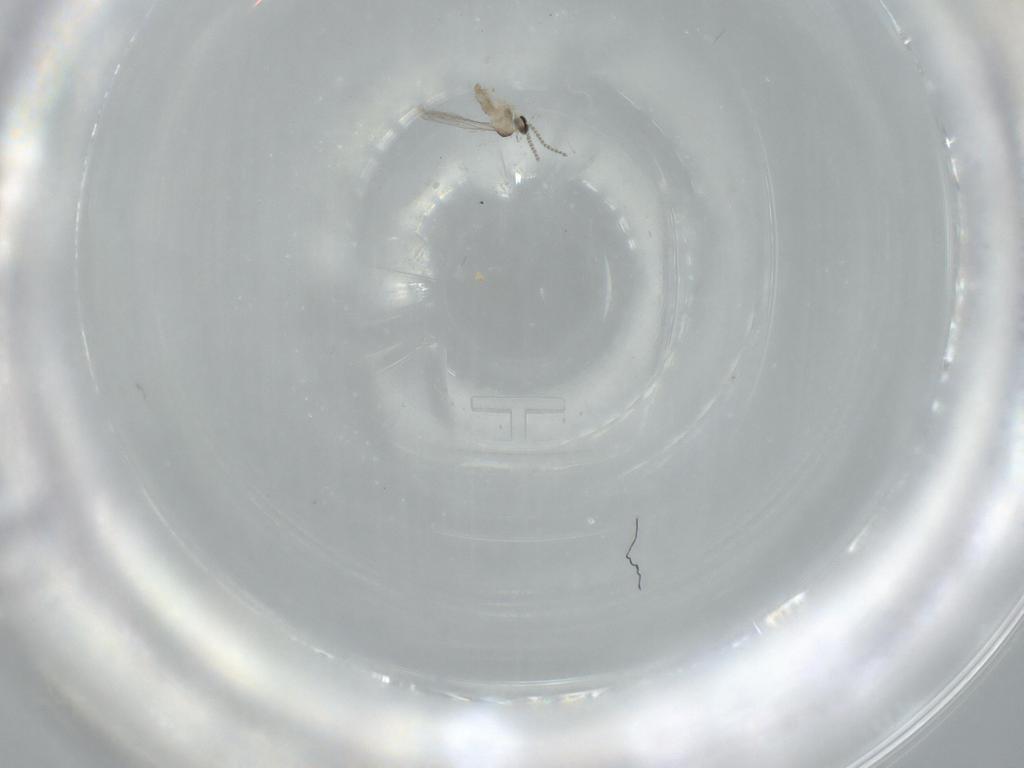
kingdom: Animalia
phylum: Arthropoda
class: Insecta
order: Diptera
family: Cecidomyiidae
